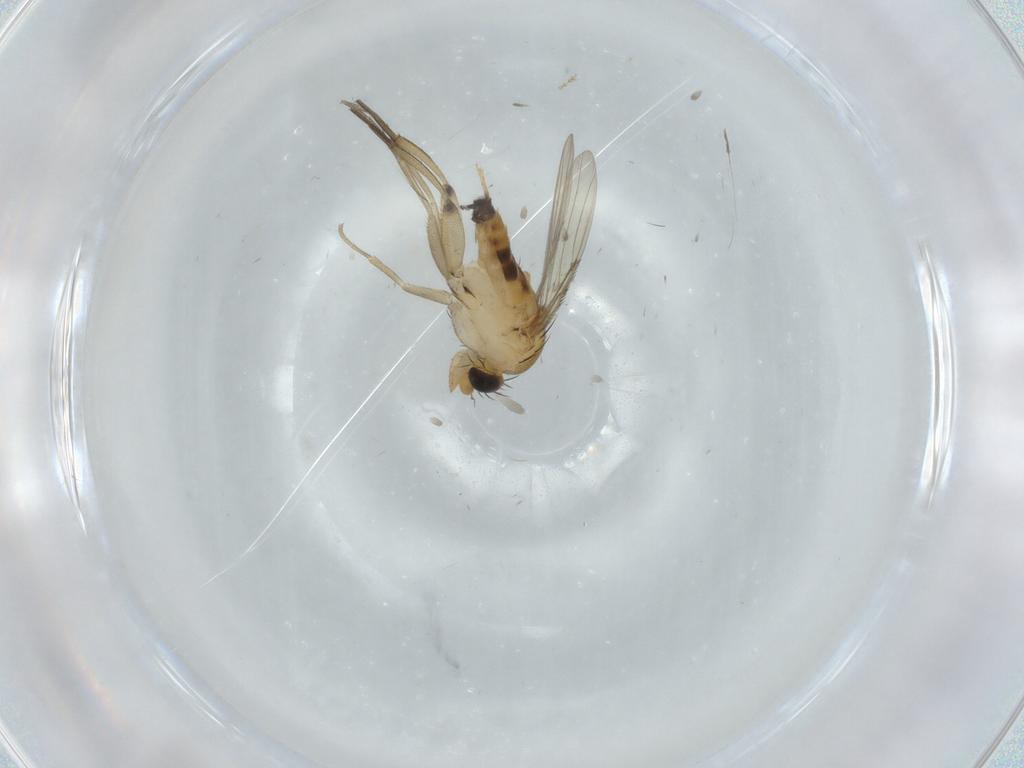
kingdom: Animalia
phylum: Arthropoda
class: Insecta
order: Diptera
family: Phoridae
